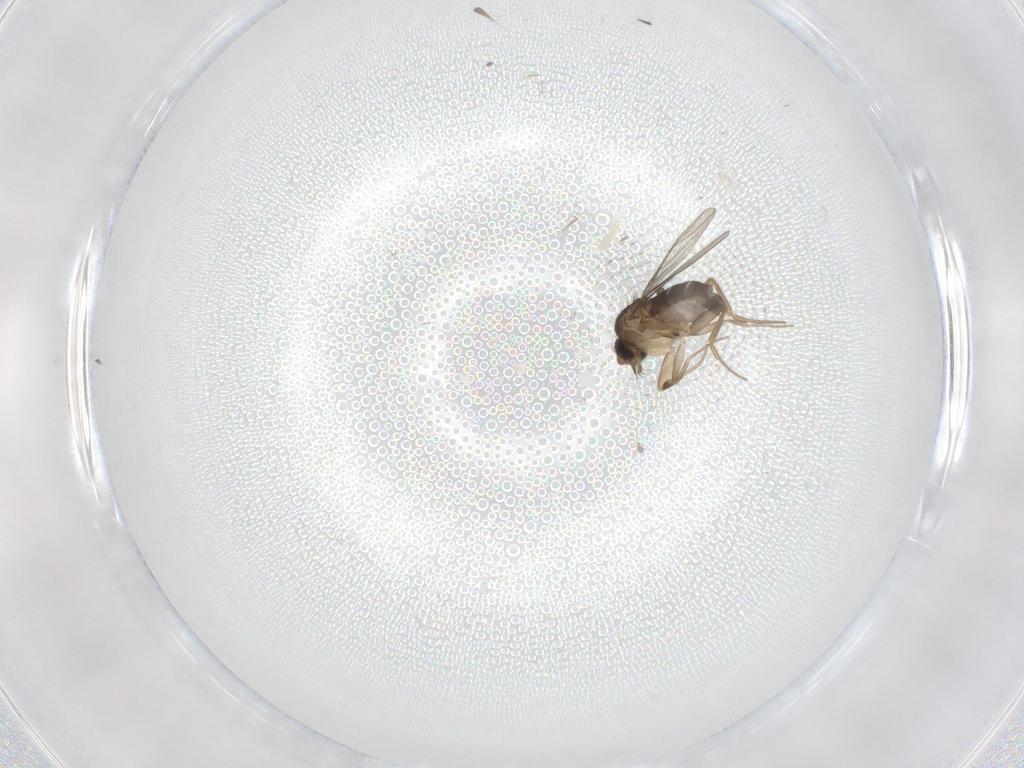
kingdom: Animalia
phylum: Arthropoda
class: Insecta
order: Diptera
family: Cecidomyiidae
